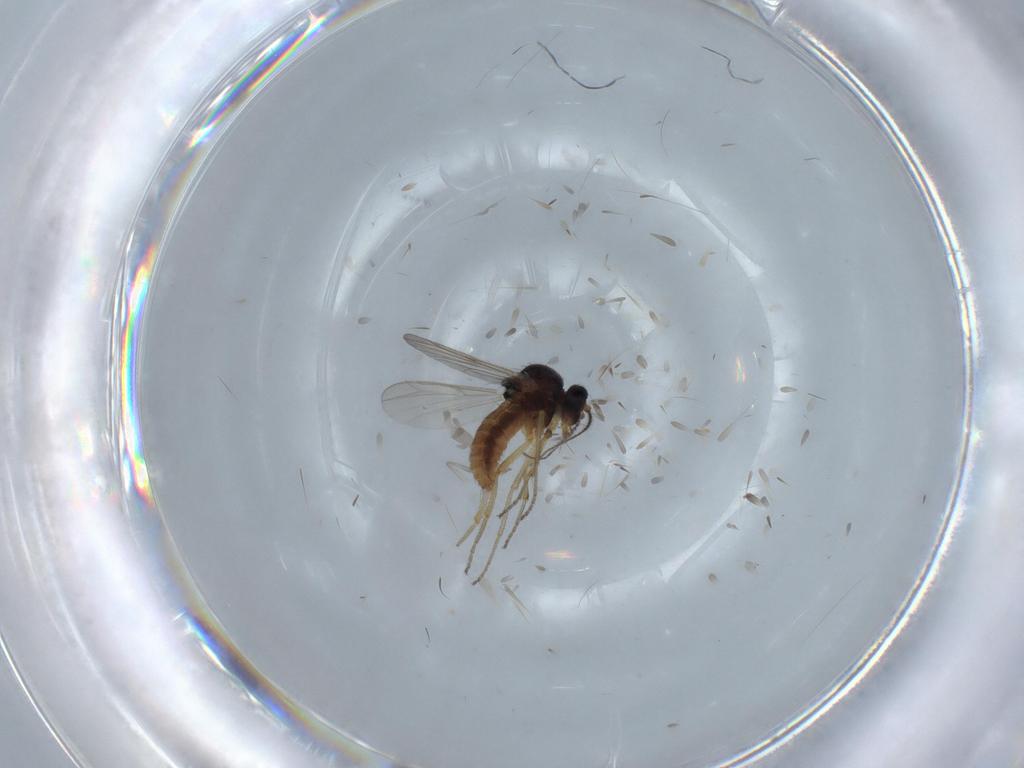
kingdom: Animalia
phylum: Arthropoda
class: Insecta
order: Diptera
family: Ceratopogonidae
